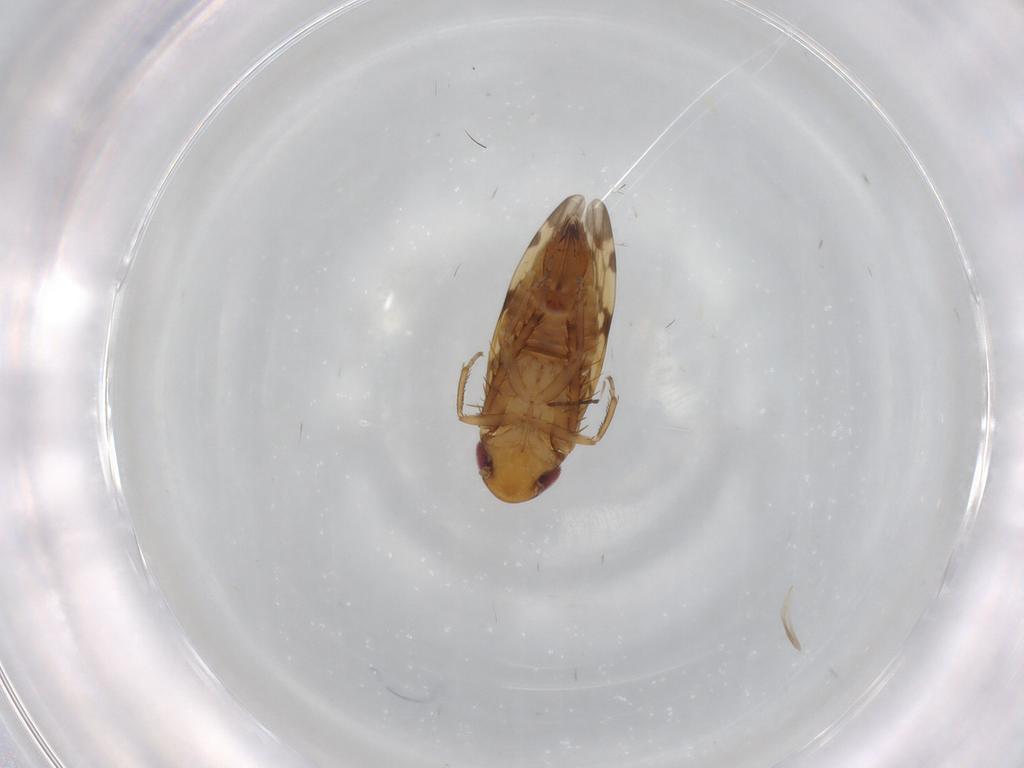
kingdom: Animalia
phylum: Arthropoda
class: Insecta
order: Hemiptera
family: Cicadellidae
